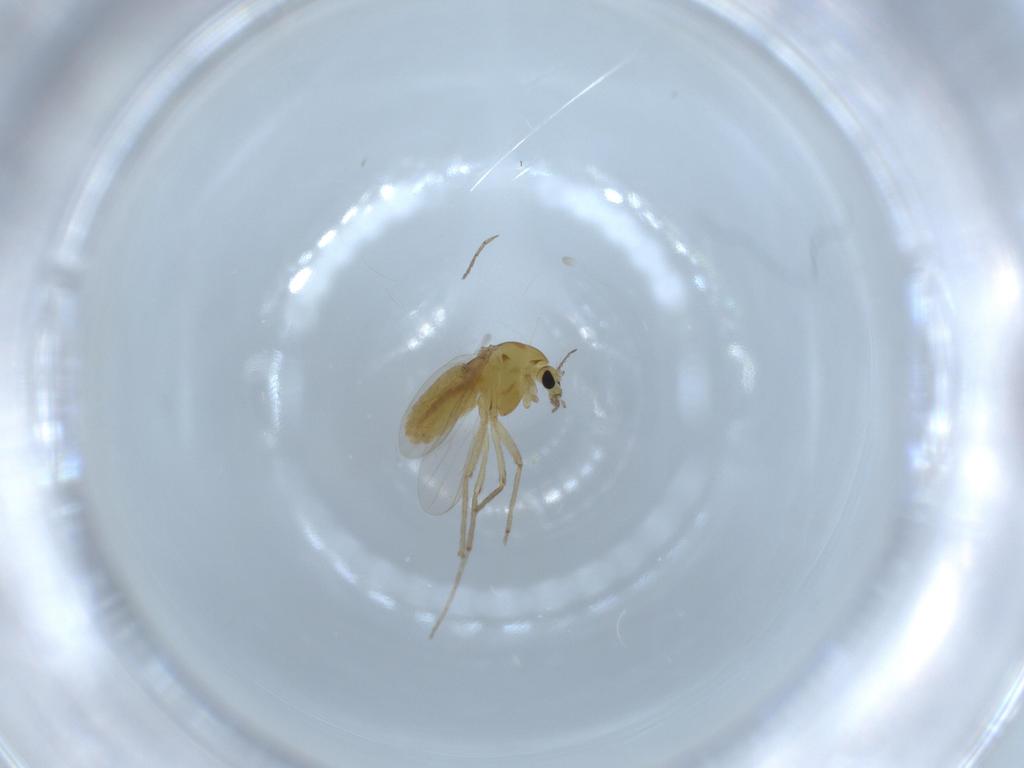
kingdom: Animalia
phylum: Arthropoda
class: Insecta
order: Diptera
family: Chironomidae
